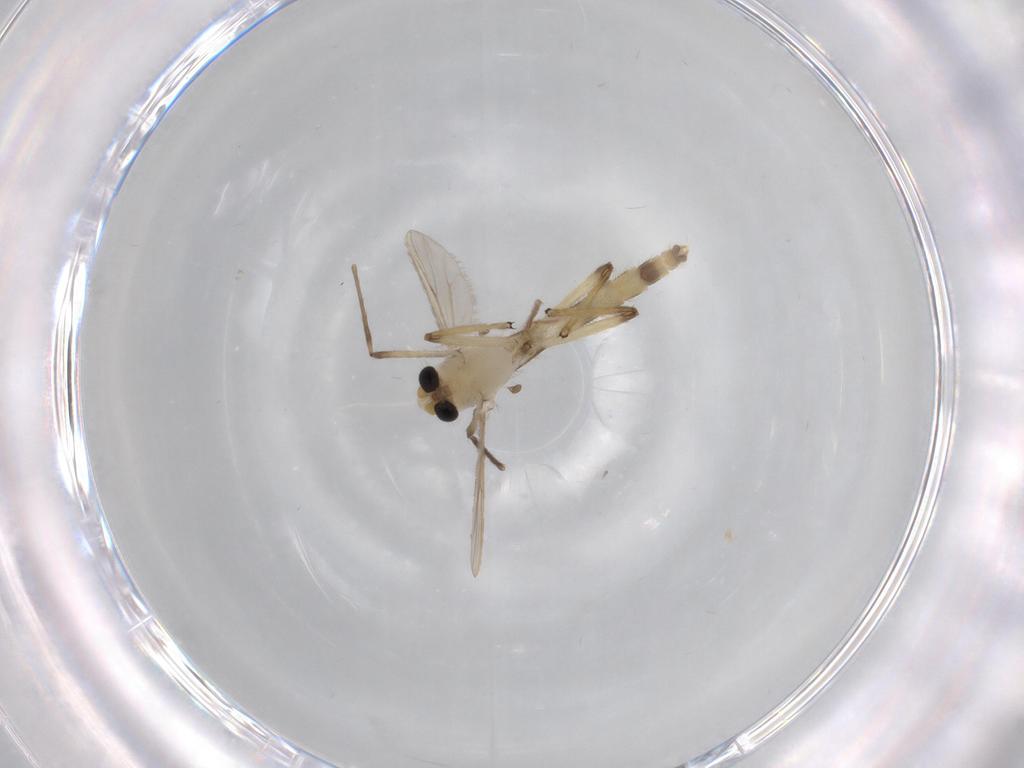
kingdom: Animalia
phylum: Arthropoda
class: Insecta
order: Diptera
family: Chironomidae
